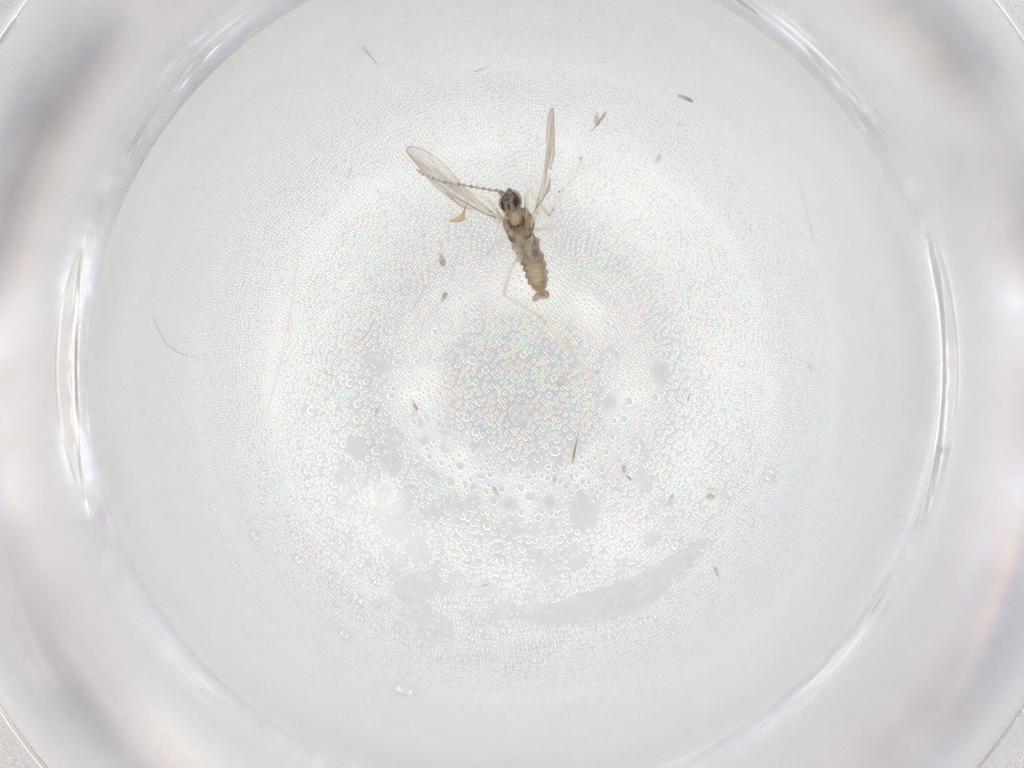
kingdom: Animalia
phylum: Arthropoda
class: Insecta
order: Diptera
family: Cecidomyiidae
